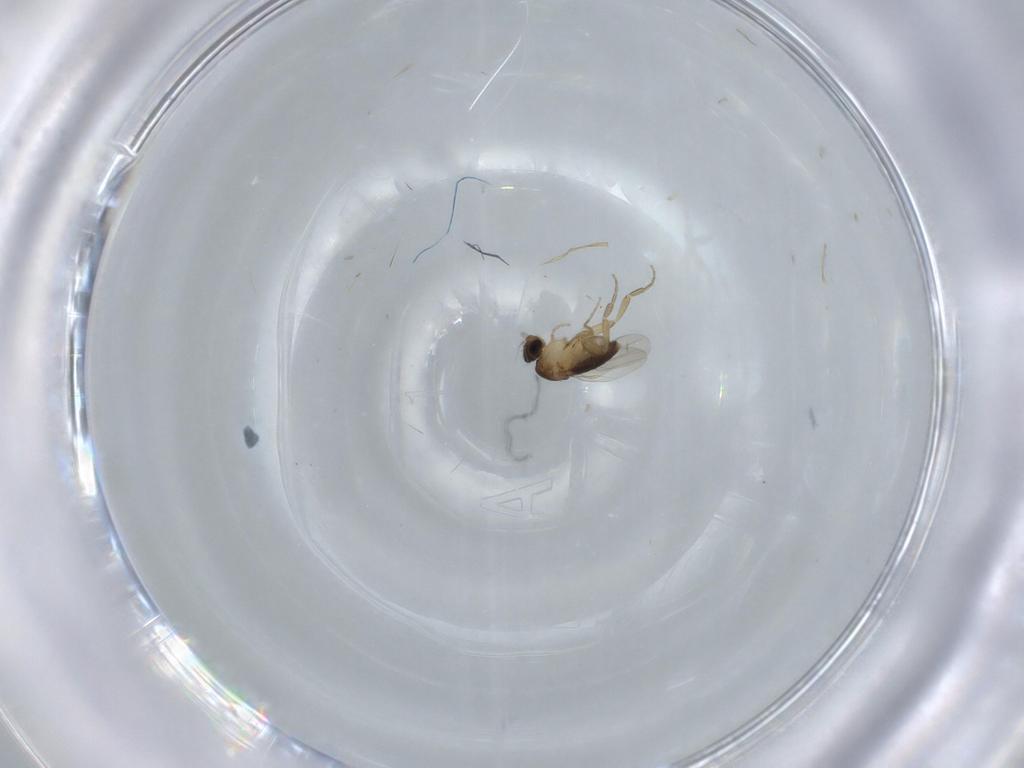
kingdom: Animalia
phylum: Arthropoda
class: Insecta
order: Diptera
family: Phoridae
